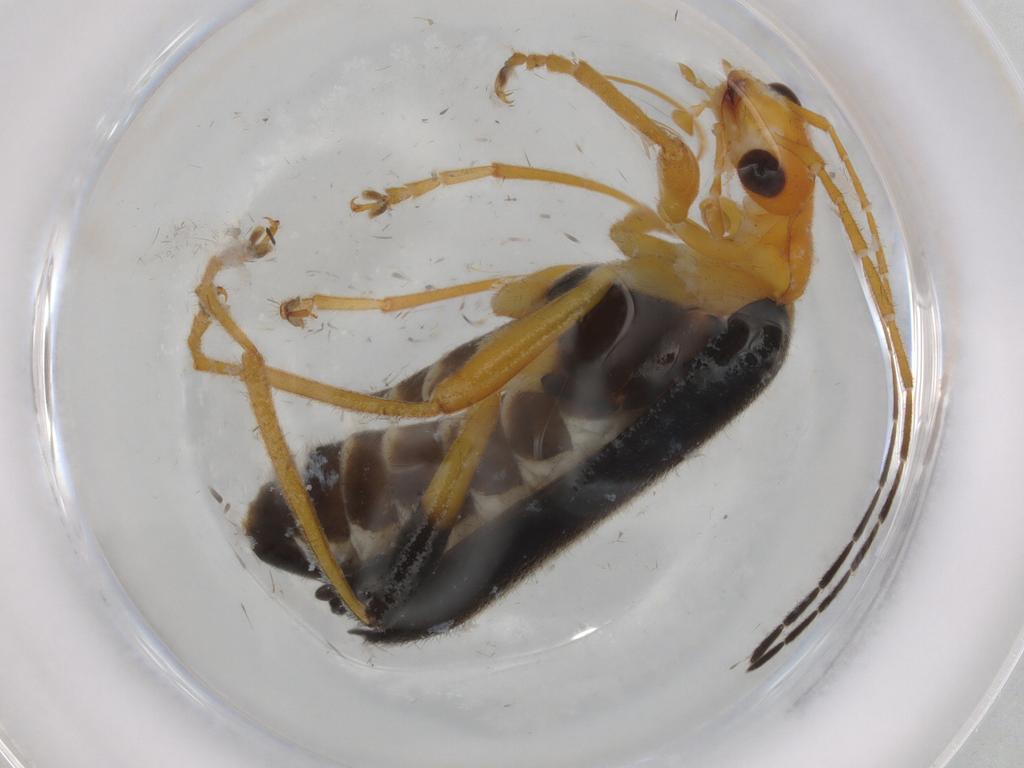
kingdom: Animalia
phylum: Arthropoda
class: Insecta
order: Coleoptera
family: Cantharidae
